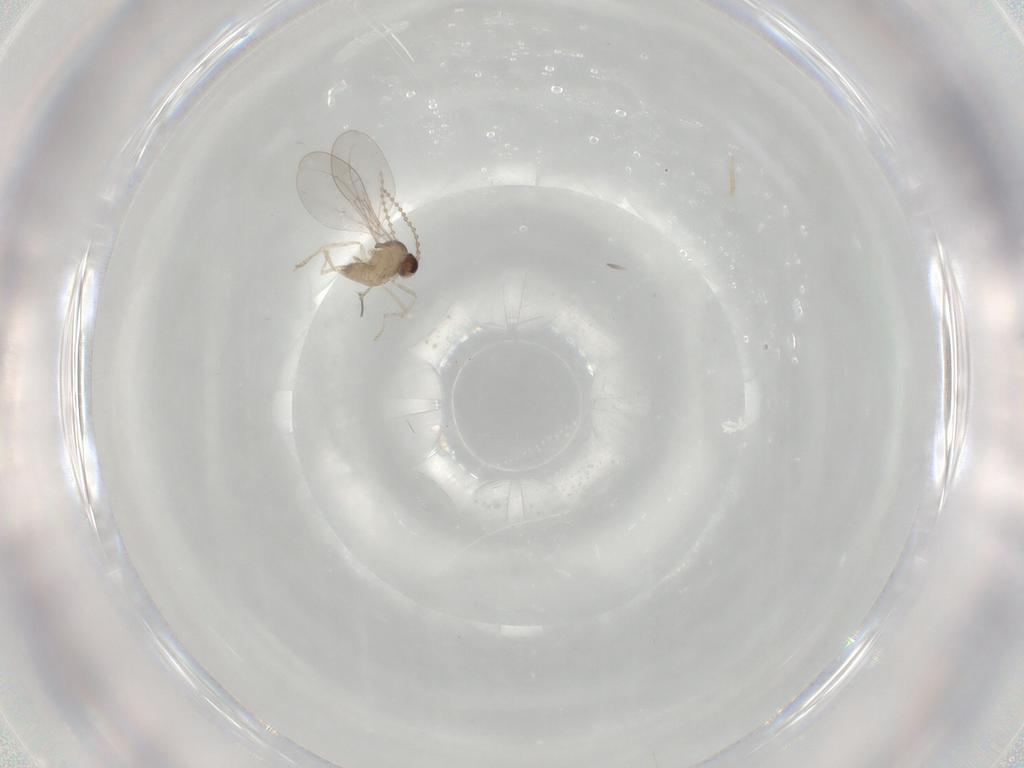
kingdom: Animalia
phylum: Arthropoda
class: Insecta
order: Diptera
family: Cecidomyiidae
